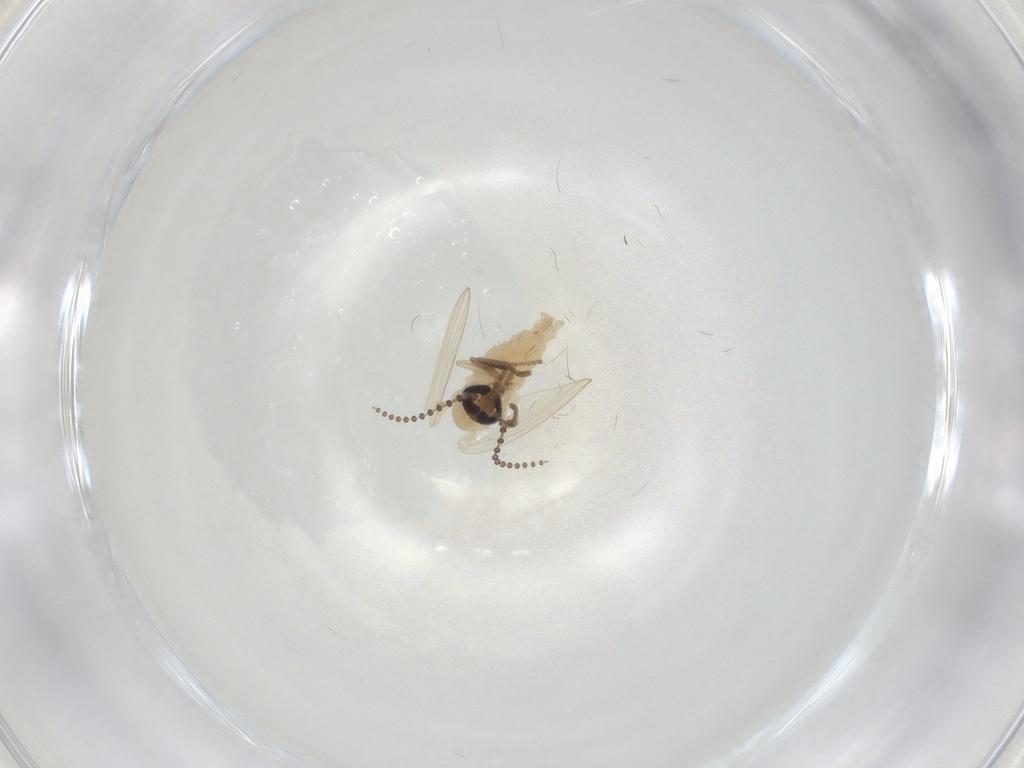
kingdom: Animalia
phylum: Arthropoda
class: Insecta
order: Diptera
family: Psychodidae
